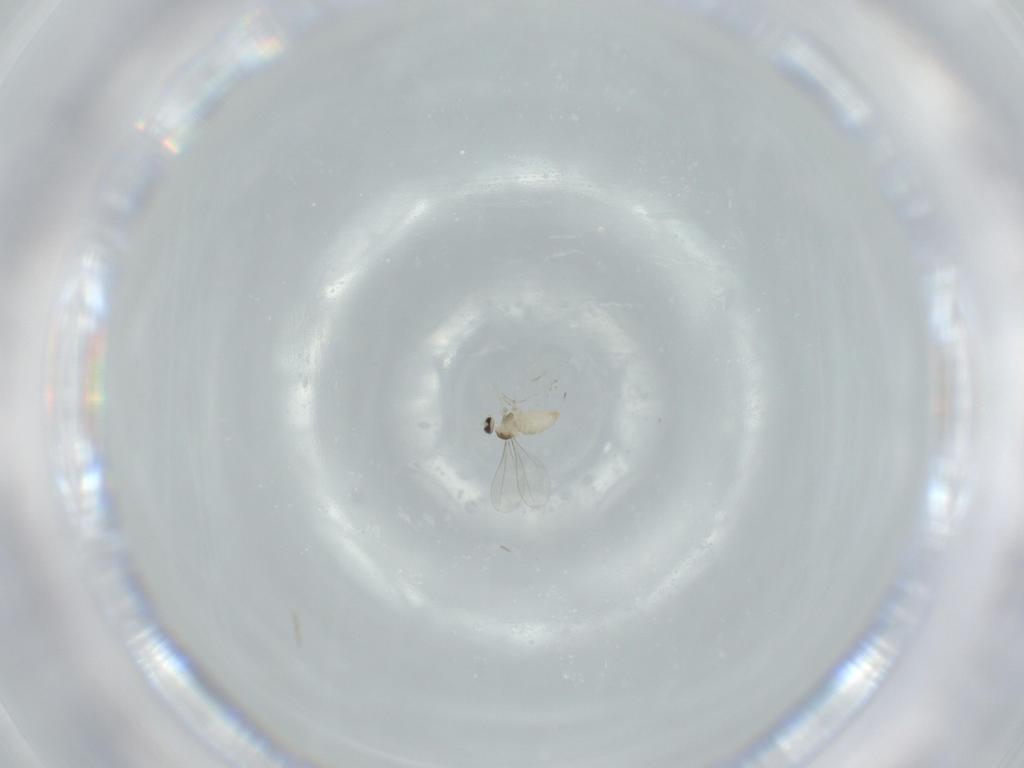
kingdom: Animalia
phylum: Arthropoda
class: Insecta
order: Diptera
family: Cecidomyiidae
